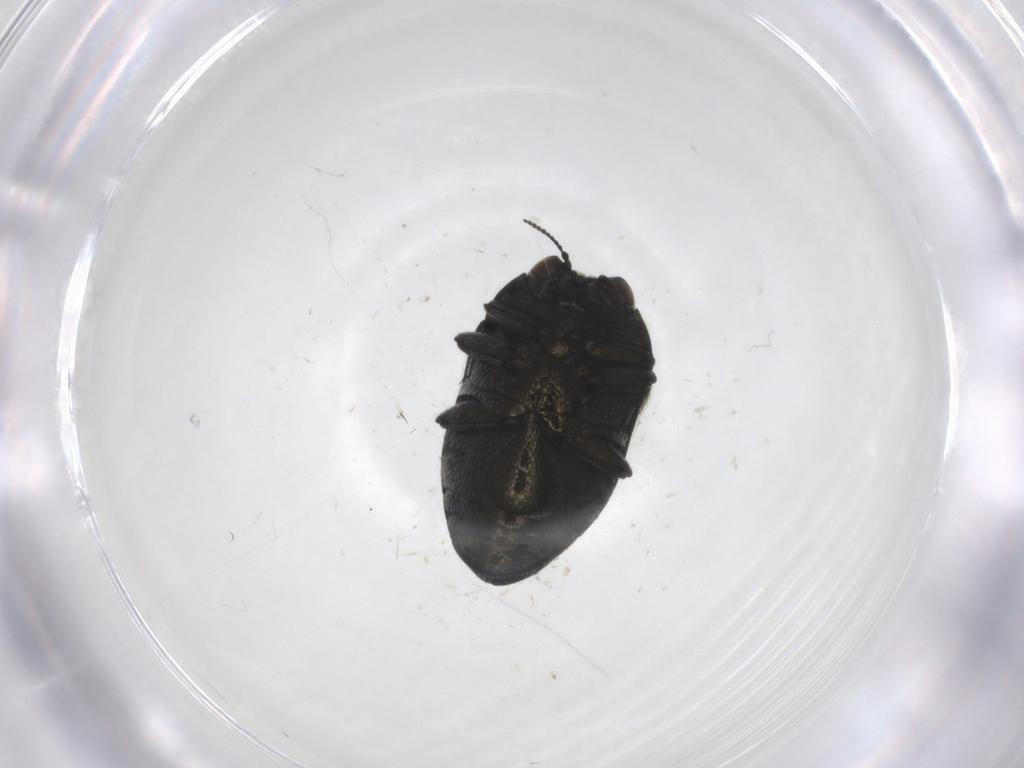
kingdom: Animalia
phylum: Arthropoda
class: Insecta
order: Coleoptera
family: Buprestidae
